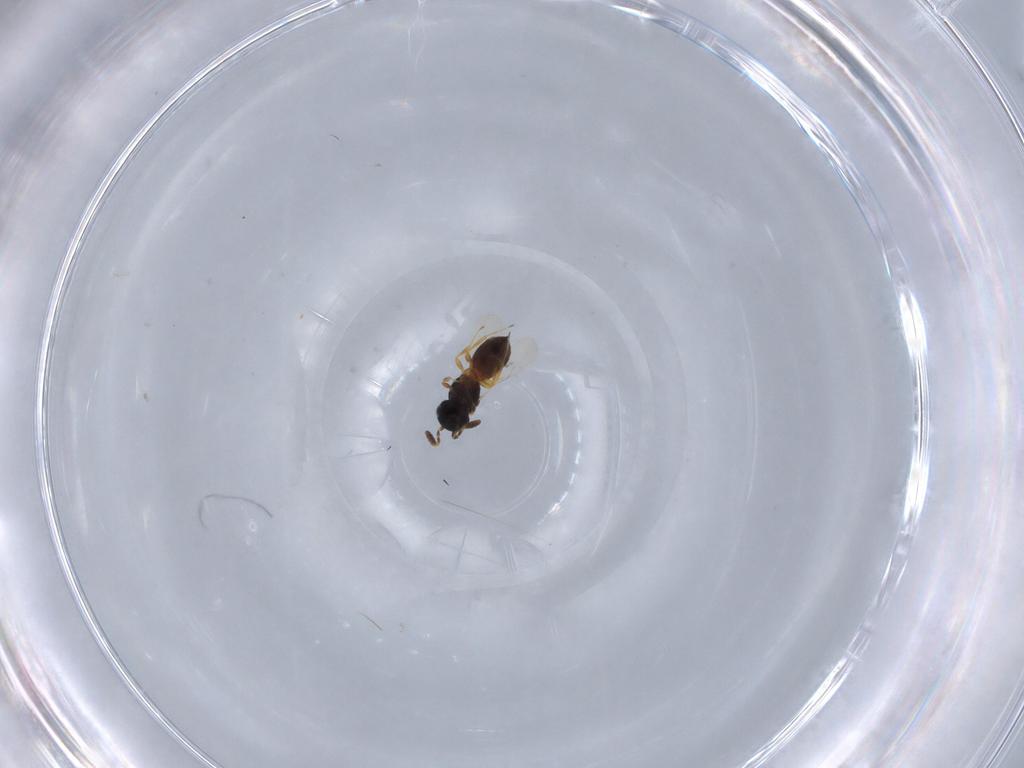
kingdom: Animalia
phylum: Arthropoda
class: Insecta
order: Hymenoptera
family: Scelionidae
